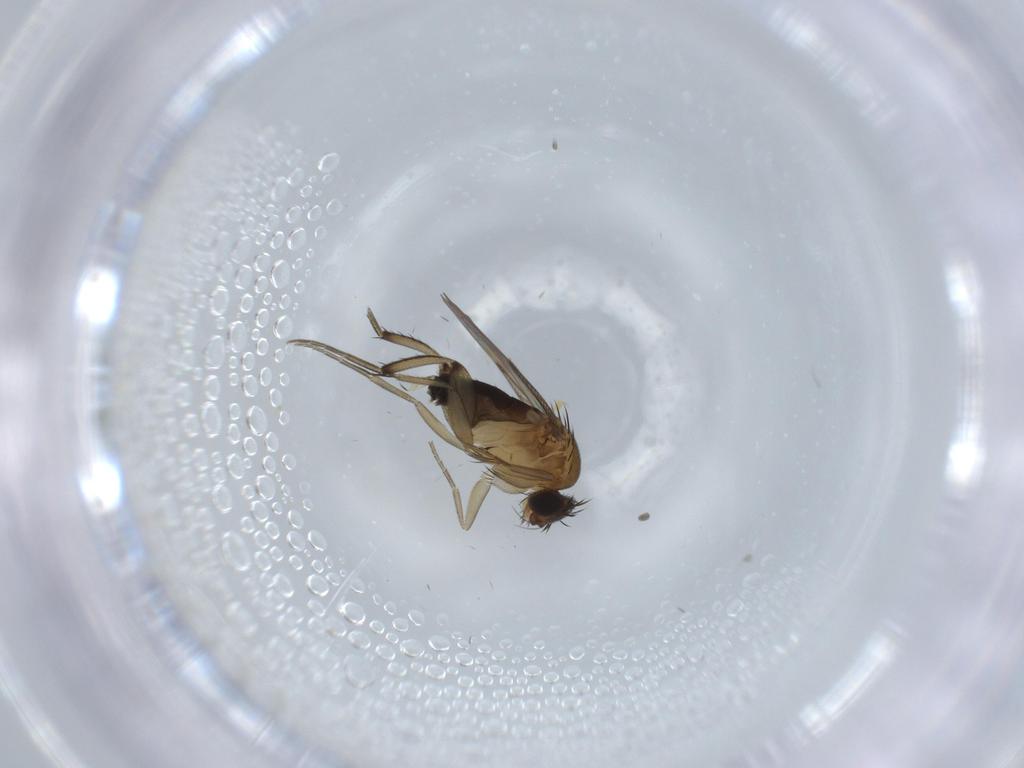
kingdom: Animalia
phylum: Arthropoda
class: Insecta
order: Diptera
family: Phoridae
